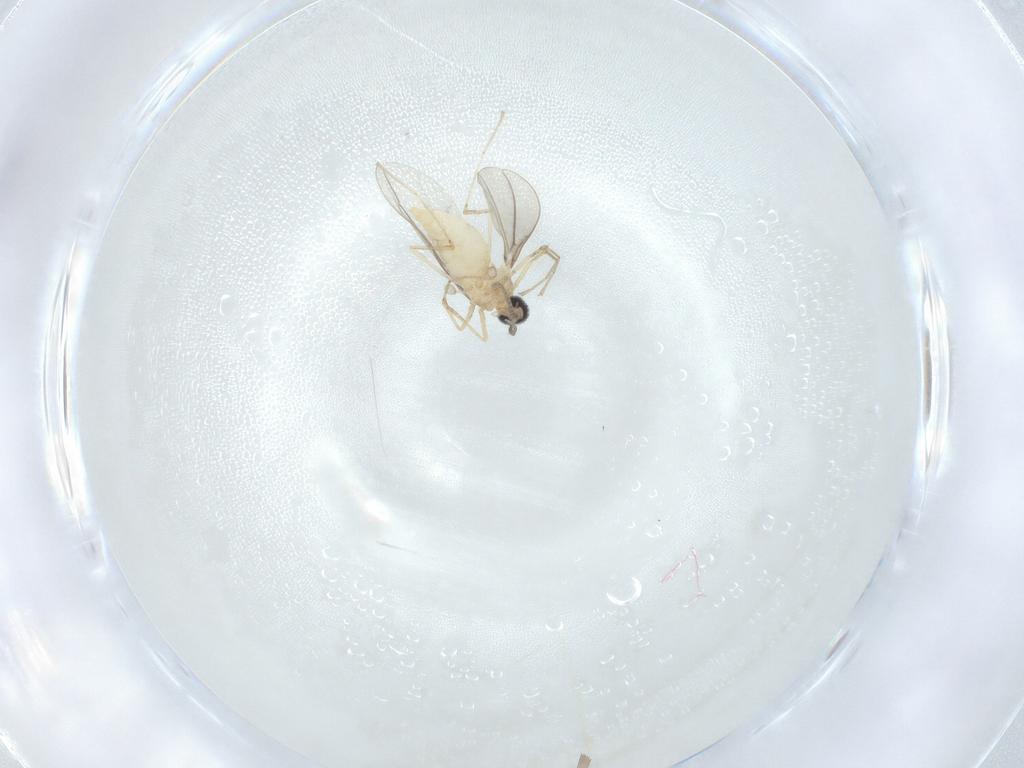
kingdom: Animalia
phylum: Arthropoda
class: Insecta
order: Diptera
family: Cecidomyiidae
